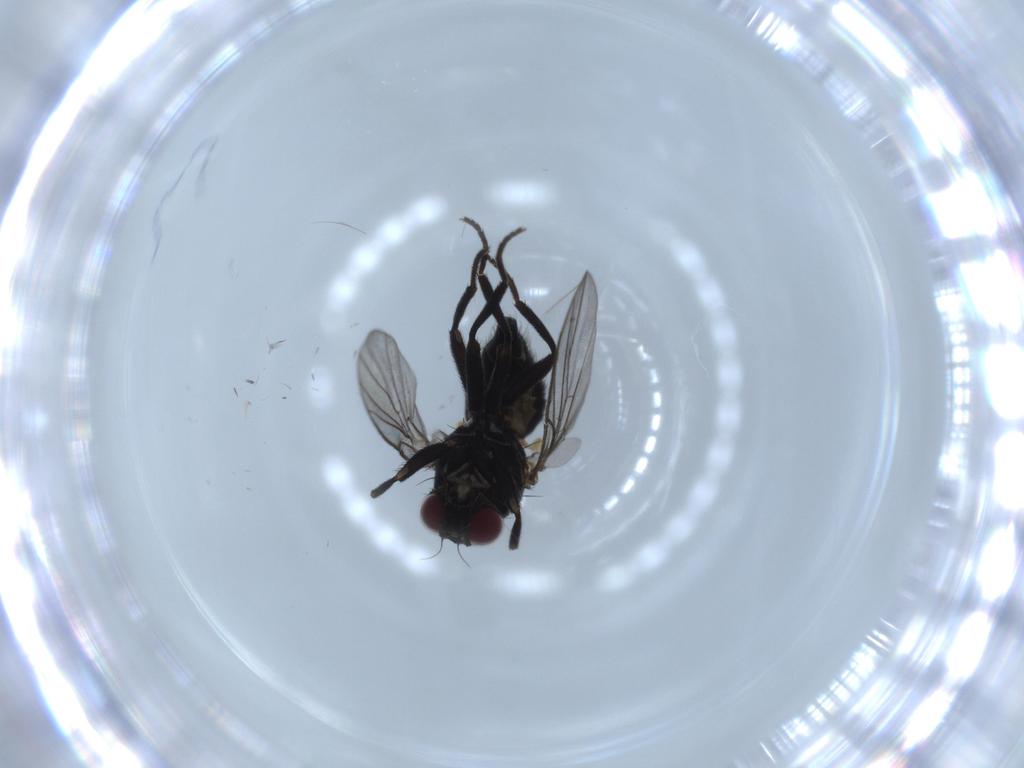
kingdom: Animalia
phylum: Arthropoda
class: Insecta
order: Diptera
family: Agromyzidae
